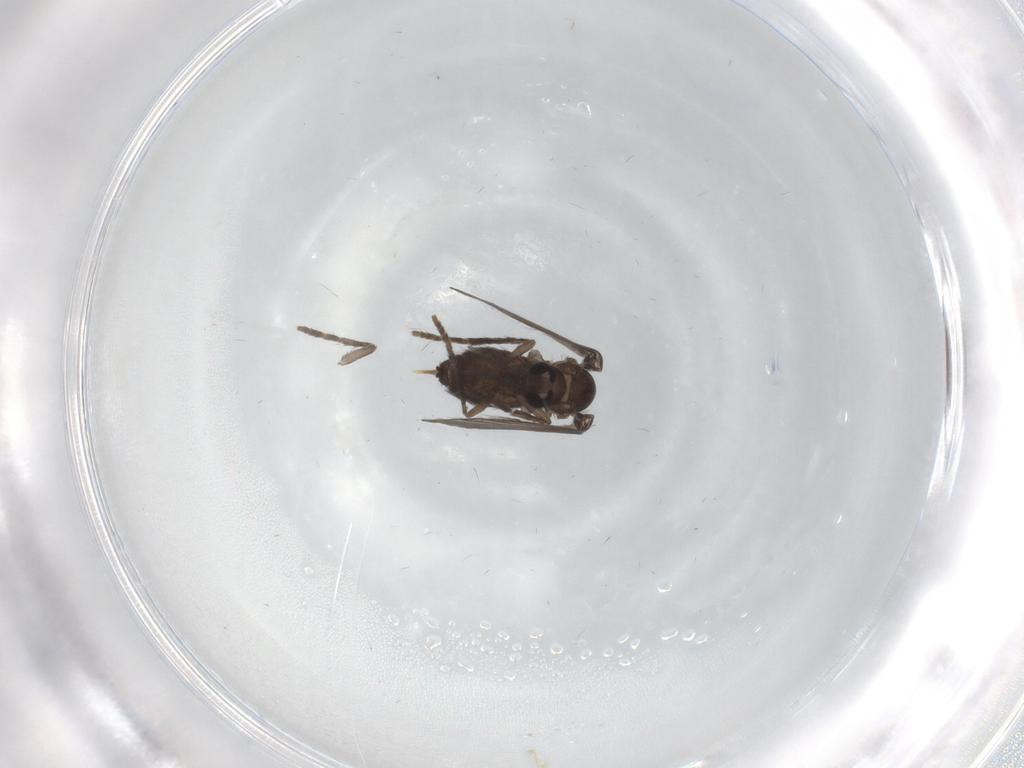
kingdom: Animalia
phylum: Arthropoda
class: Insecta
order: Diptera
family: Psychodidae
